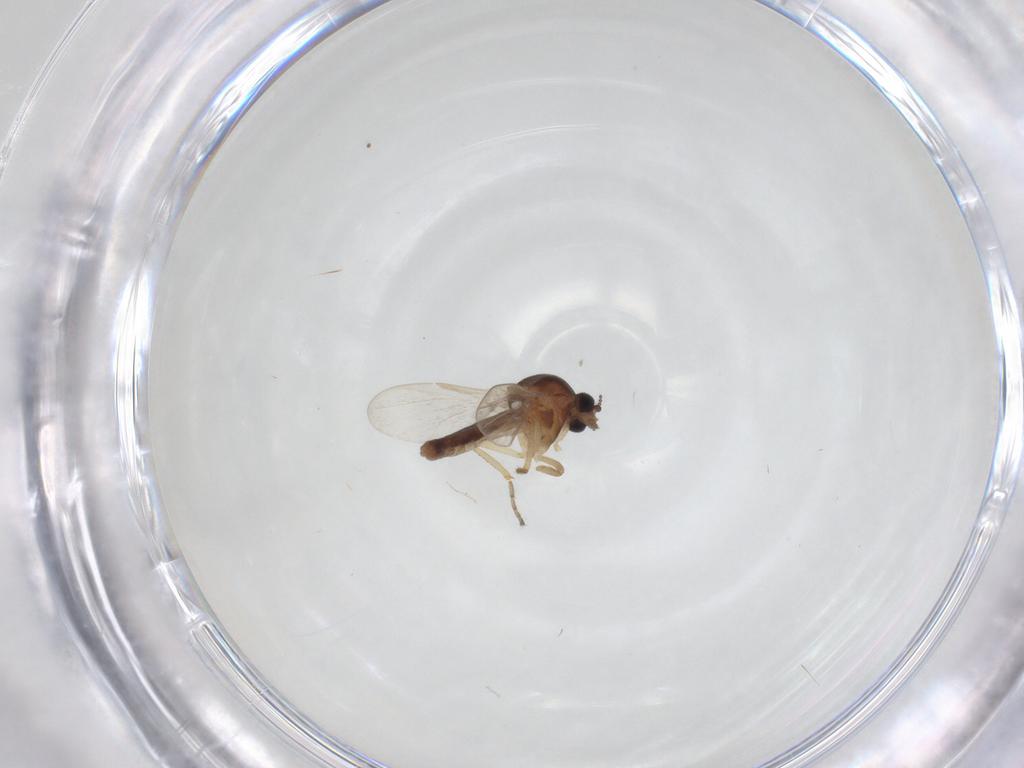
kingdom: Animalia
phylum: Arthropoda
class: Insecta
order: Diptera
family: Ceratopogonidae
